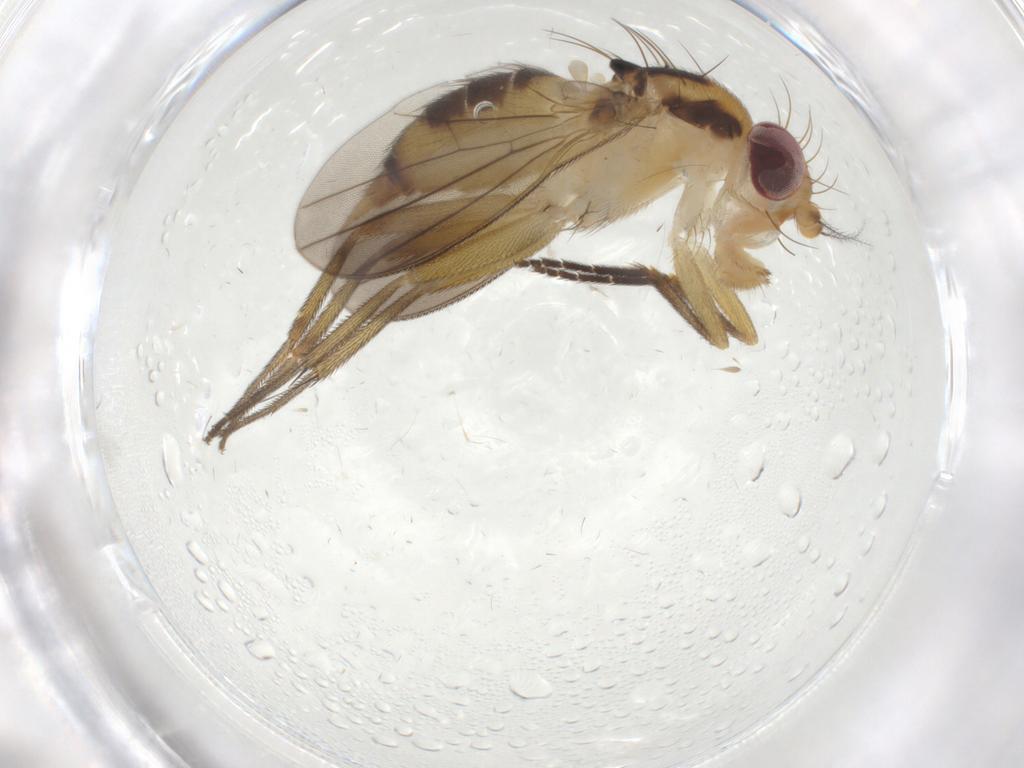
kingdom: Animalia
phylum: Arthropoda
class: Insecta
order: Diptera
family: Clusiidae
